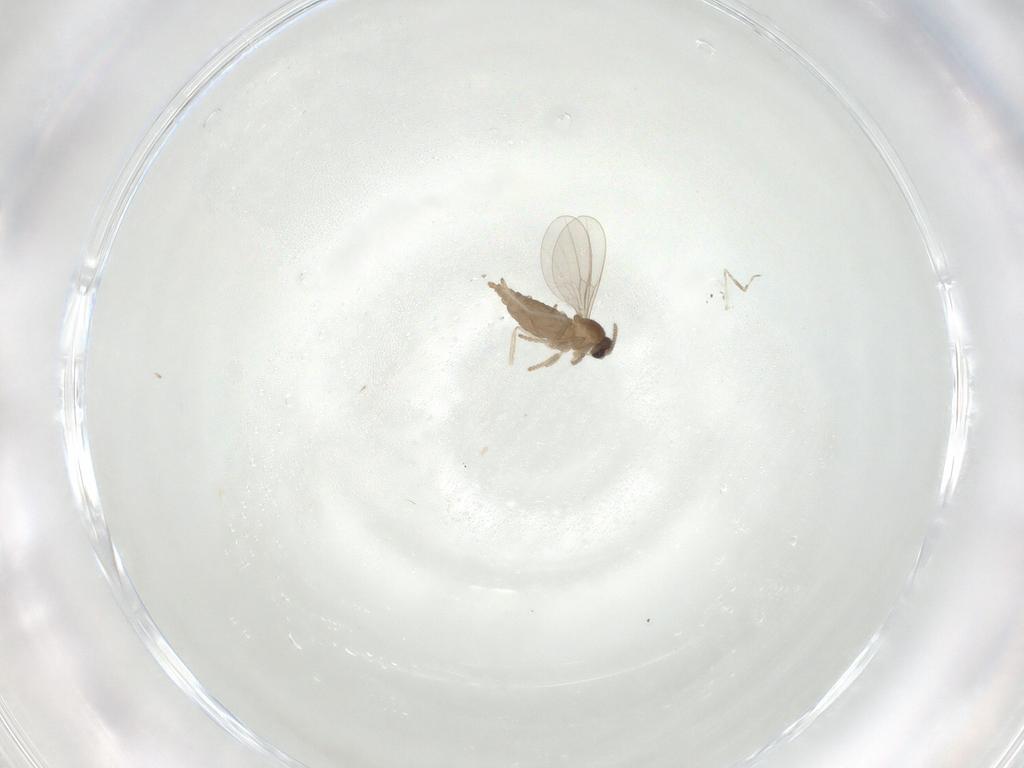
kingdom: Animalia
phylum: Arthropoda
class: Insecta
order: Diptera
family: Cecidomyiidae
